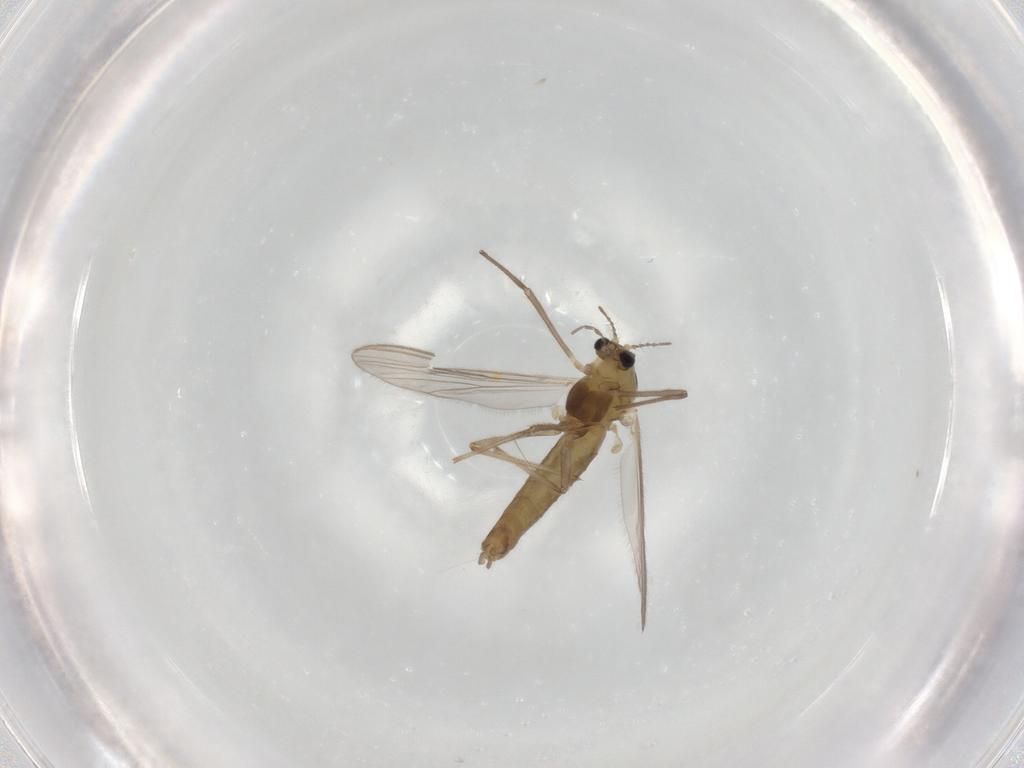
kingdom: Animalia
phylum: Arthropoda
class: Insecta
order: Diptera
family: Chironomidae
